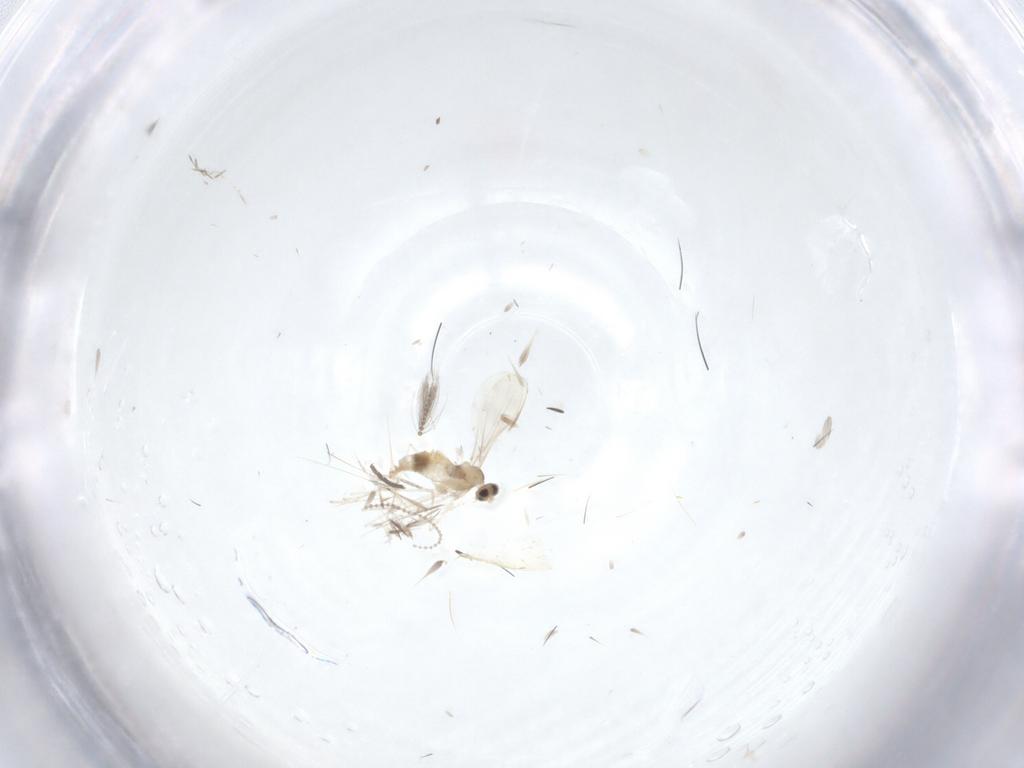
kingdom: Animalia
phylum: Arthropoda
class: Insecta
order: Diptera
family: Cecidomyiidae
